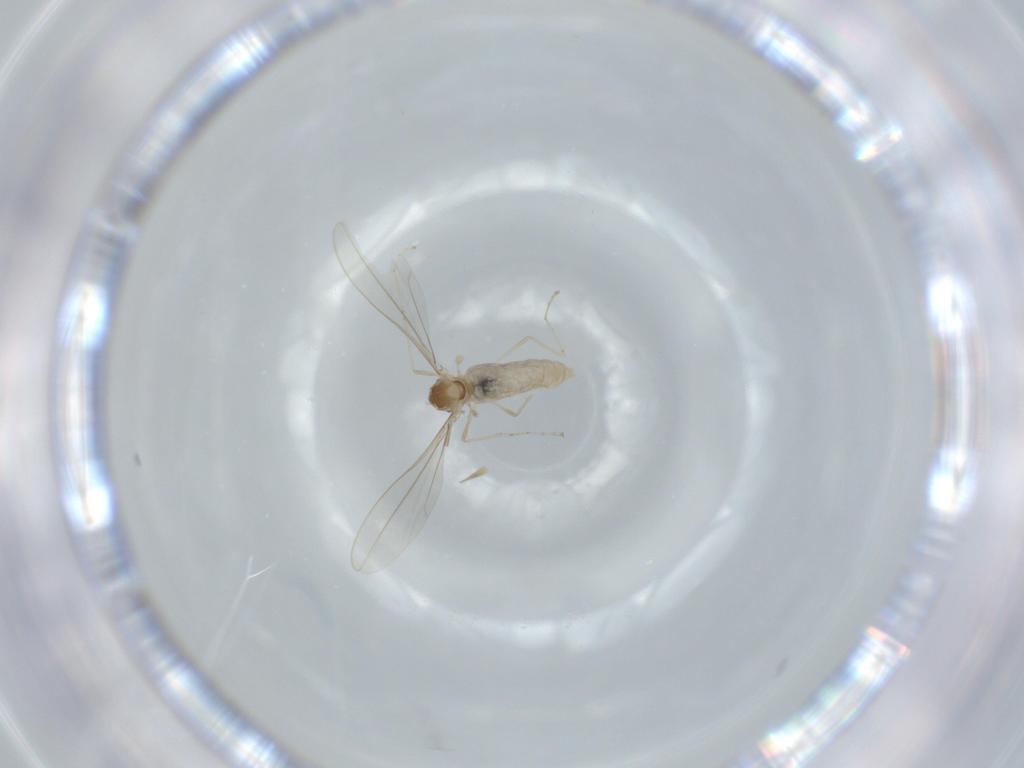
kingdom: Animalia
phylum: Arthropoda
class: Insecta
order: Diptera
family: Cecidomyiidae
